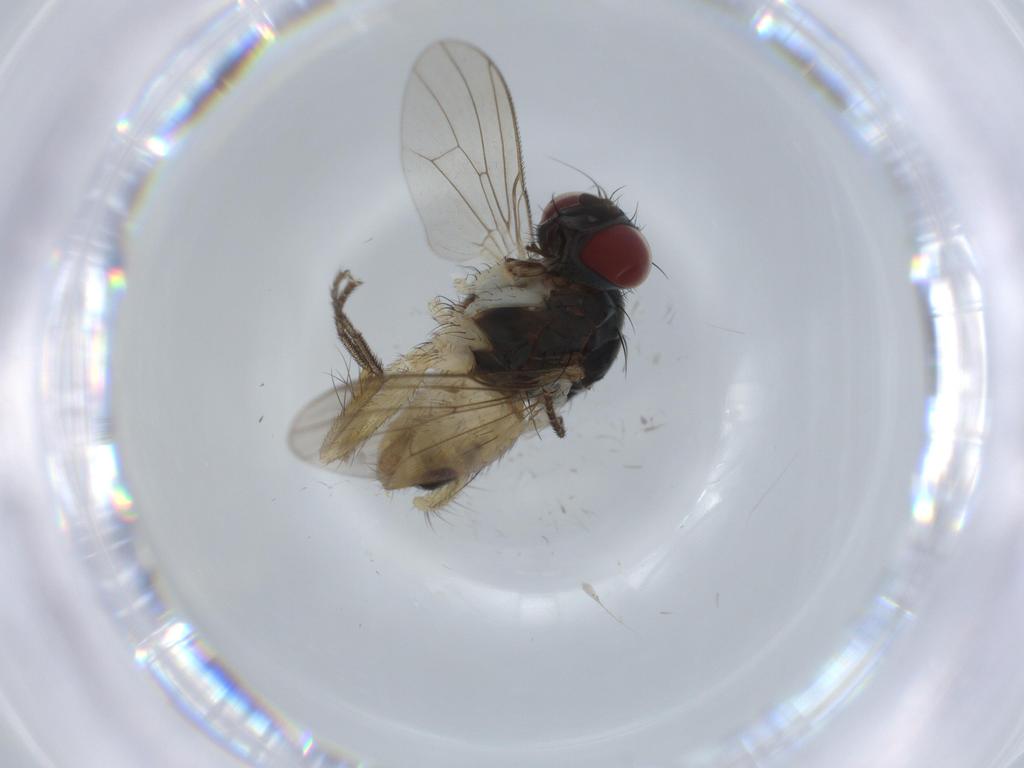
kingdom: Animalia
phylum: Arthropoda
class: Insecta
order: Diptera
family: Muscidae
